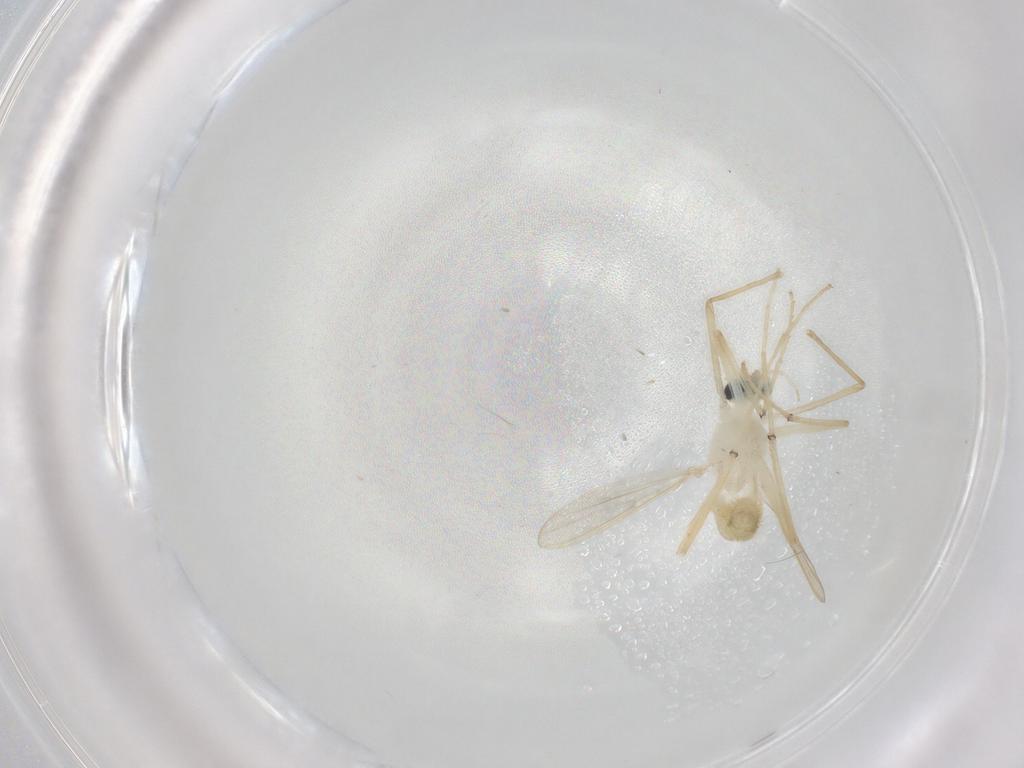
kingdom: Animalia
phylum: Arthropoda
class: Insecta
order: Diptera
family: Chironomidae
